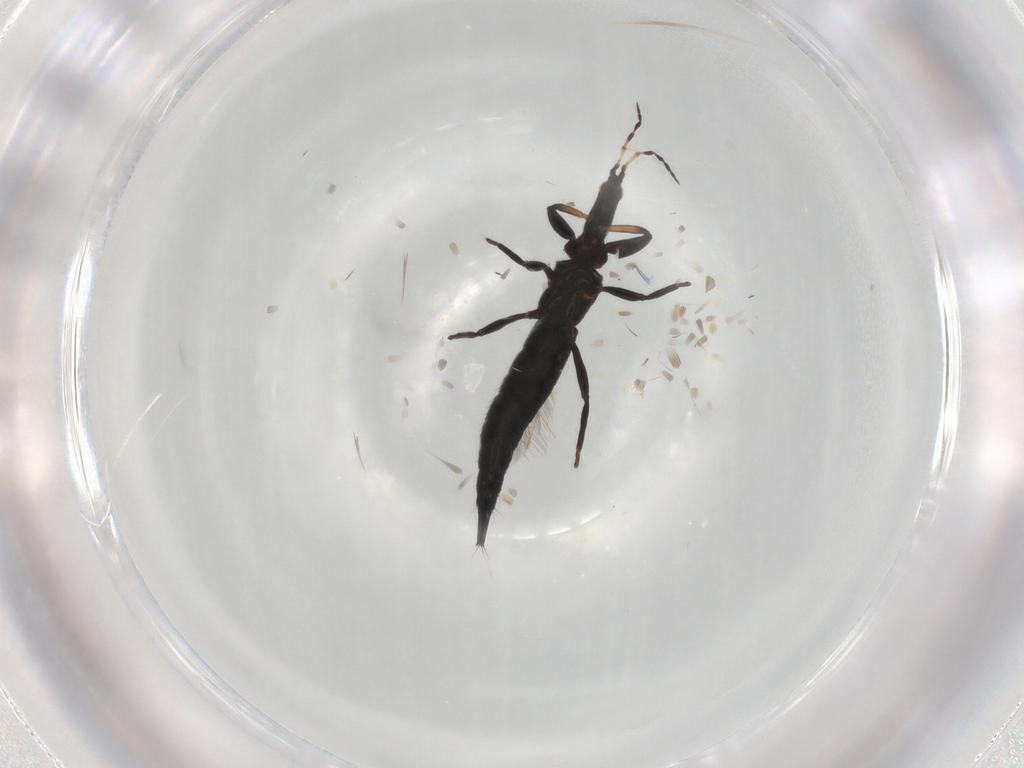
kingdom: Animalia
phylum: Arthropoda
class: Insecta
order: Thysanoptera
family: Phlaeothripidae
